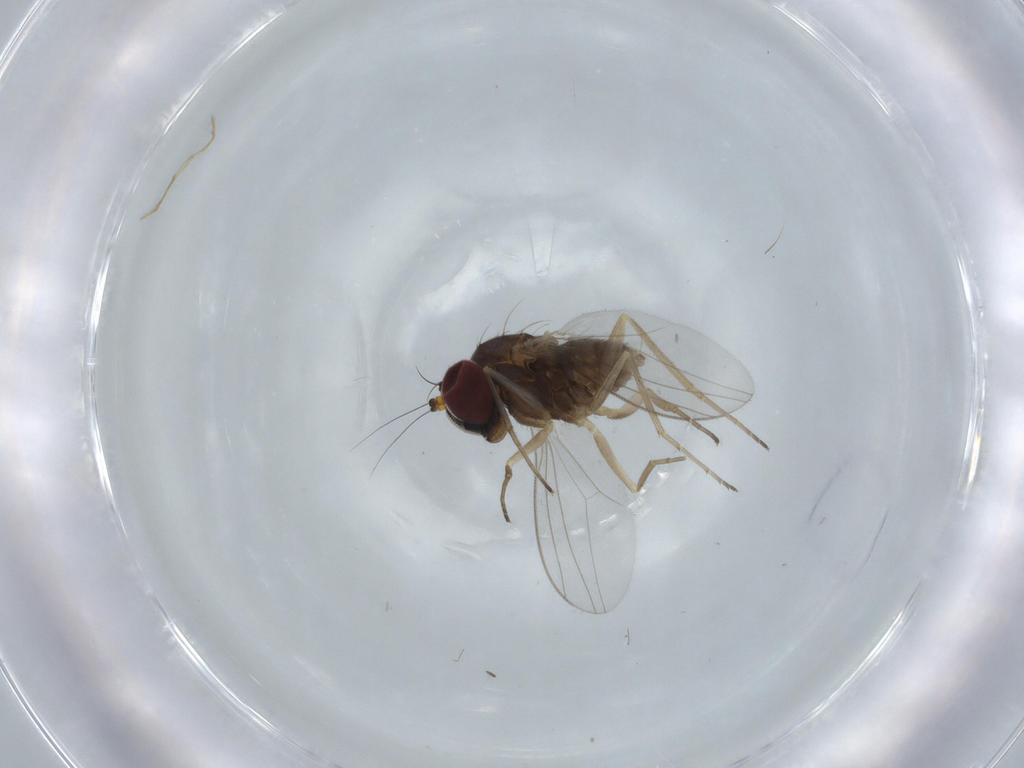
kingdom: Animalia
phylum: Arthropoda
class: Insecta
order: Diptera
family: Dolichopodidae
